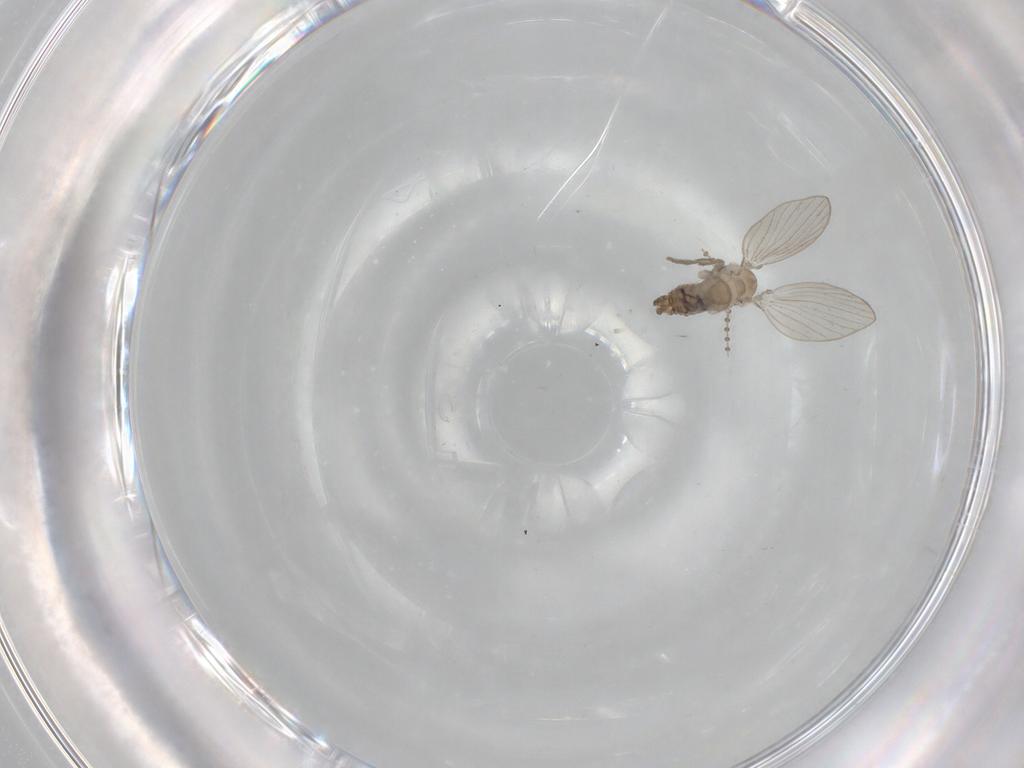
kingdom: Animalia
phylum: Arthropoda
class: Insecta
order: Diptera
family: Psychodidae
